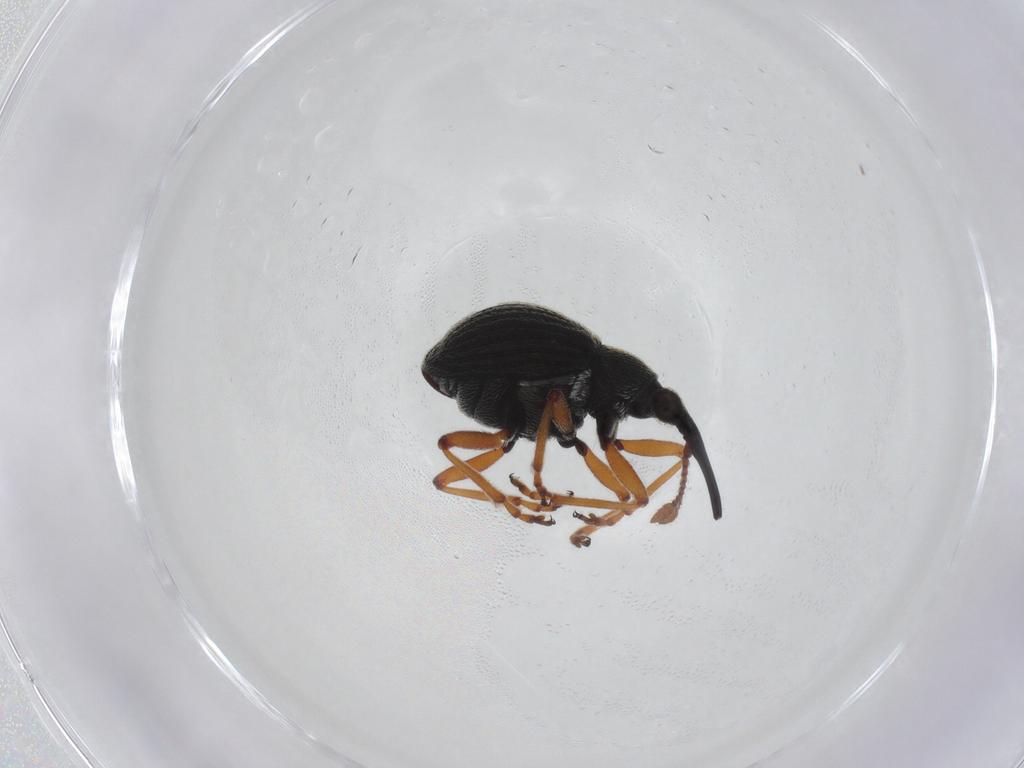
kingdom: Animalia
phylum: Arthropoda
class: Insecta
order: Coleoptera
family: Brentidae
